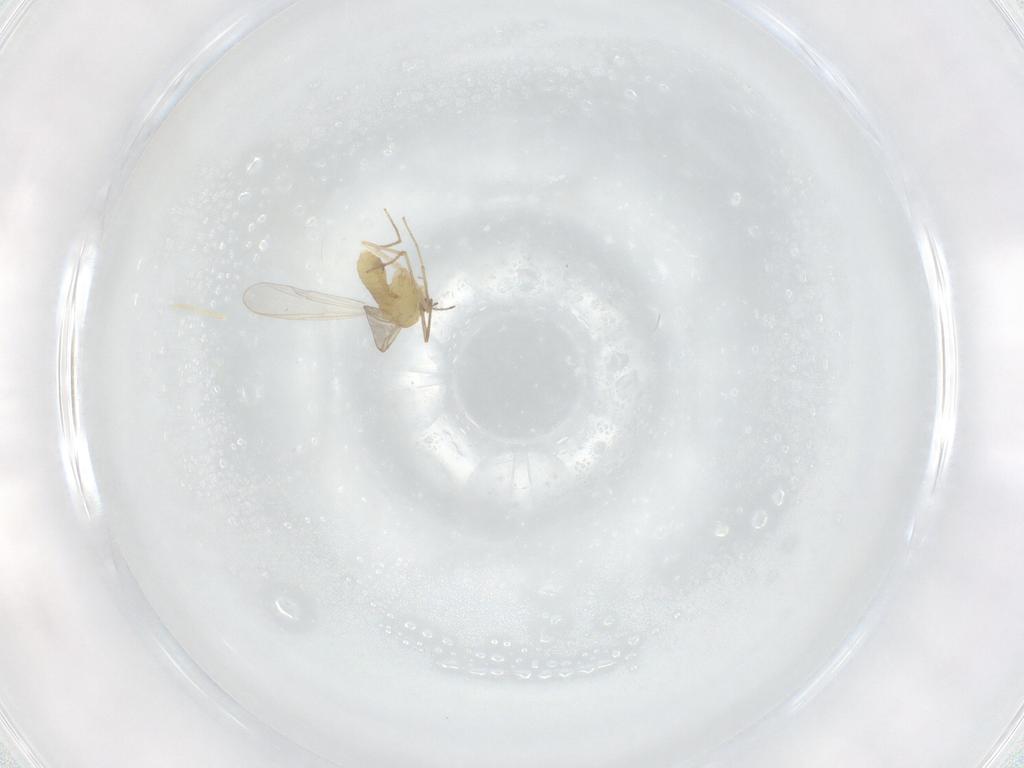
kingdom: Animalia
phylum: Arthropoda
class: Insecta
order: Diptera
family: Chironomidae
